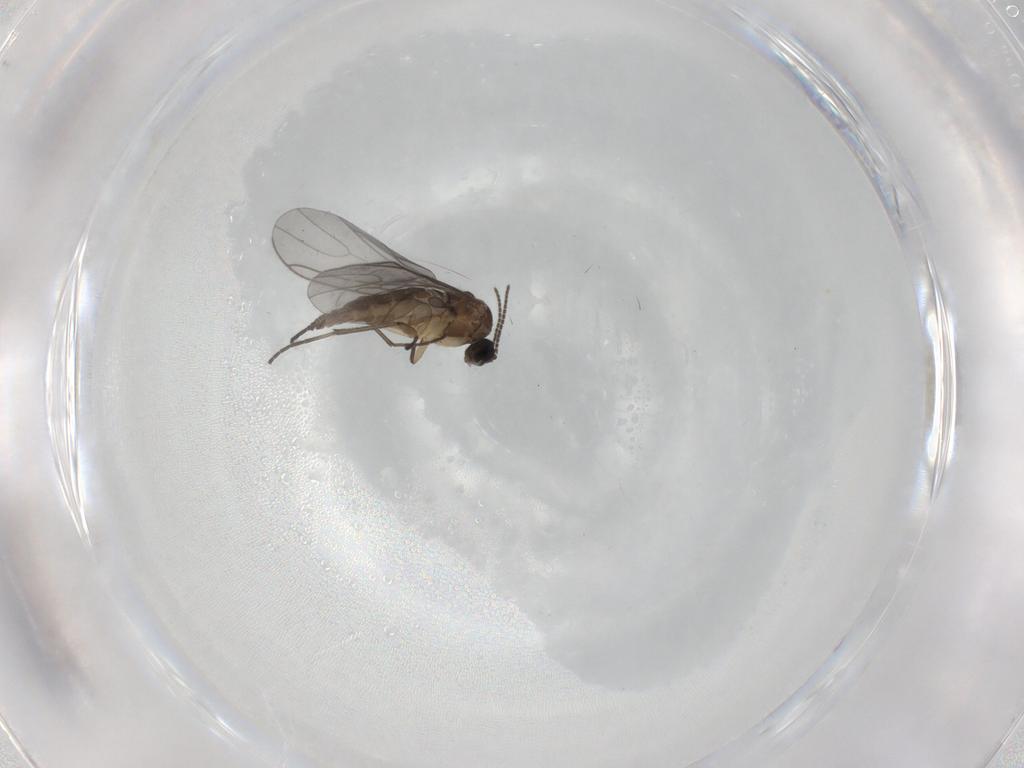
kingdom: Animalia
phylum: Arthropoda
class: Insecta
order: Diptera
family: Sciaridae
